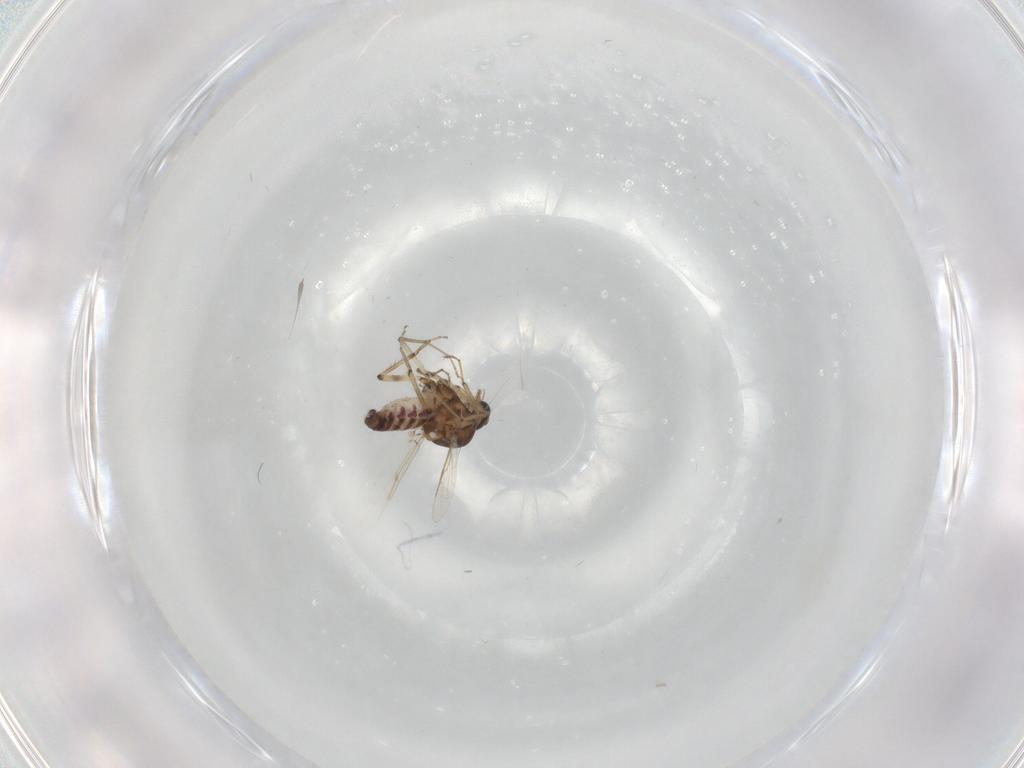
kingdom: Animalia
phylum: Arthropoda
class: Insecta
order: Diptera
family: Ceratopogonidae
